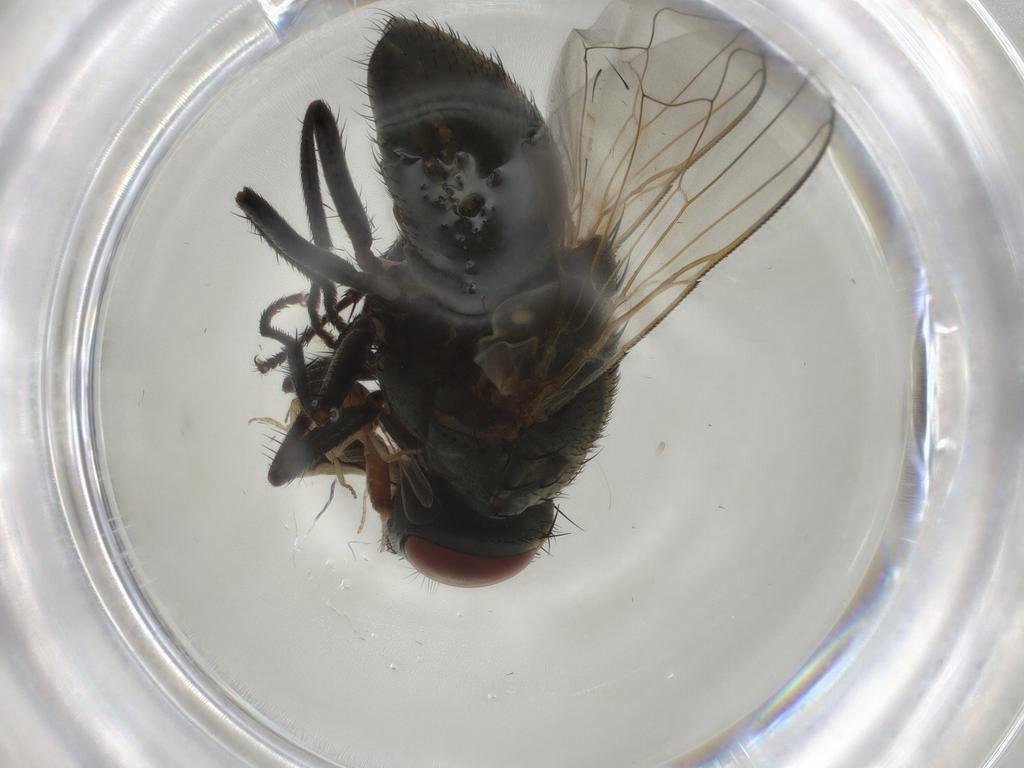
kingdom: Animalia
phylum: Arthropoda
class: Insecta
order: Diptera
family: Muscidae
